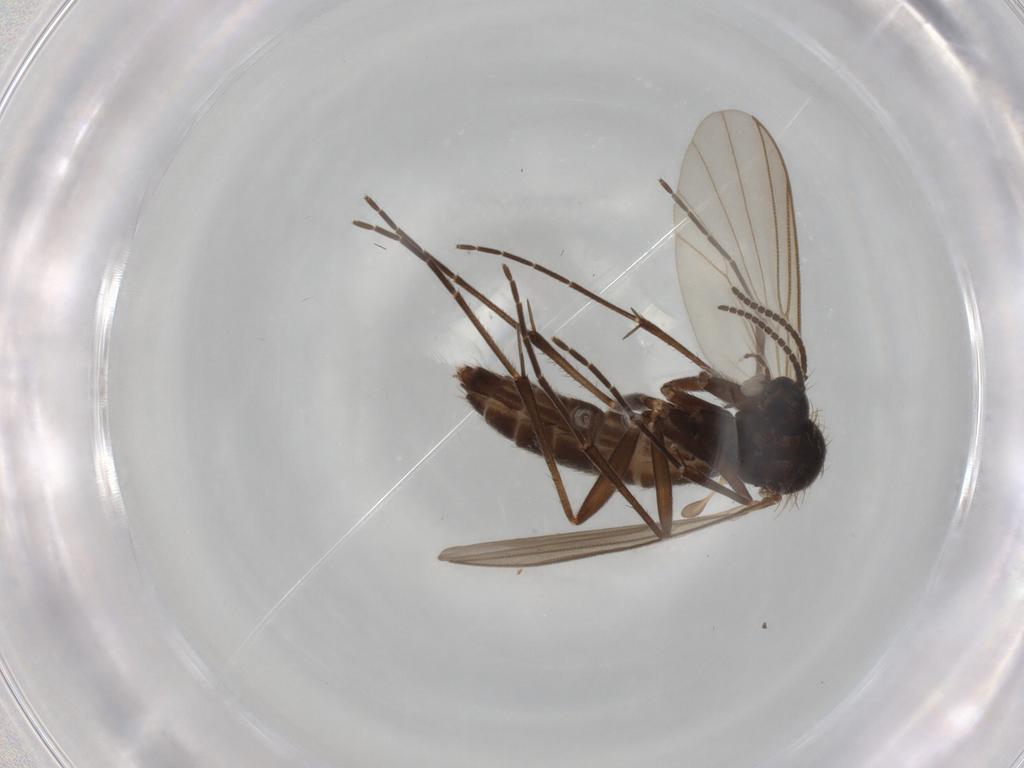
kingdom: Animalia
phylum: Arthropoda
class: Insecta
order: Diptera
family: Mycetophilidae
